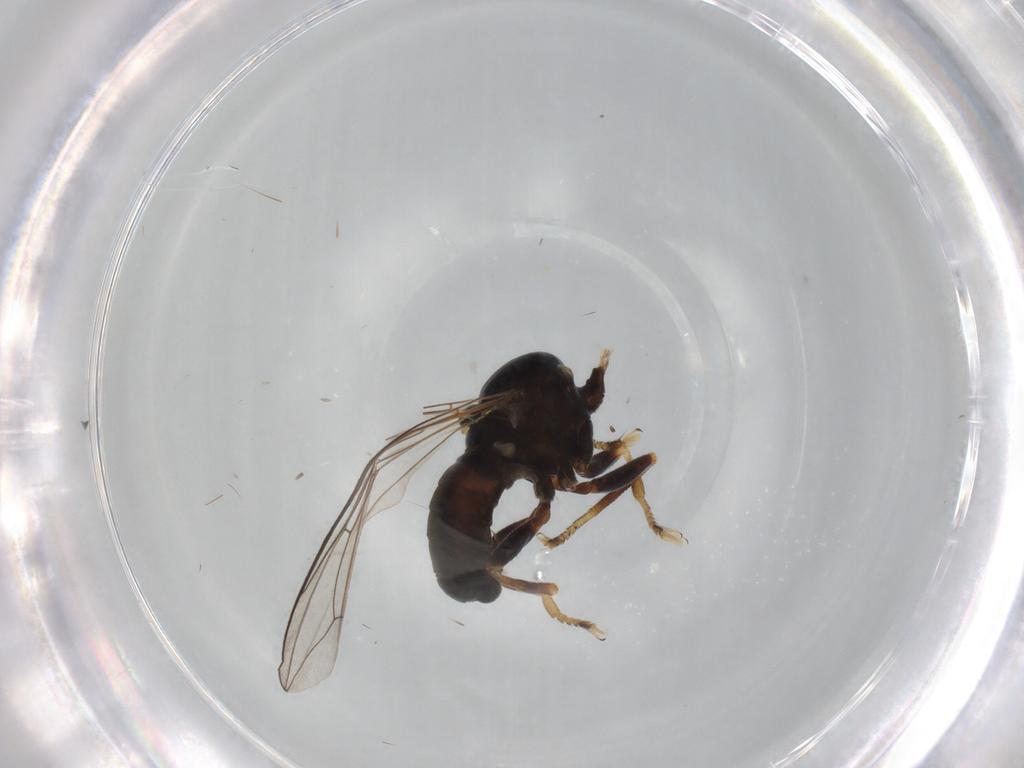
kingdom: Animalia
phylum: Arthropoda
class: Insecta
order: Diptera
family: Pipunculidae
